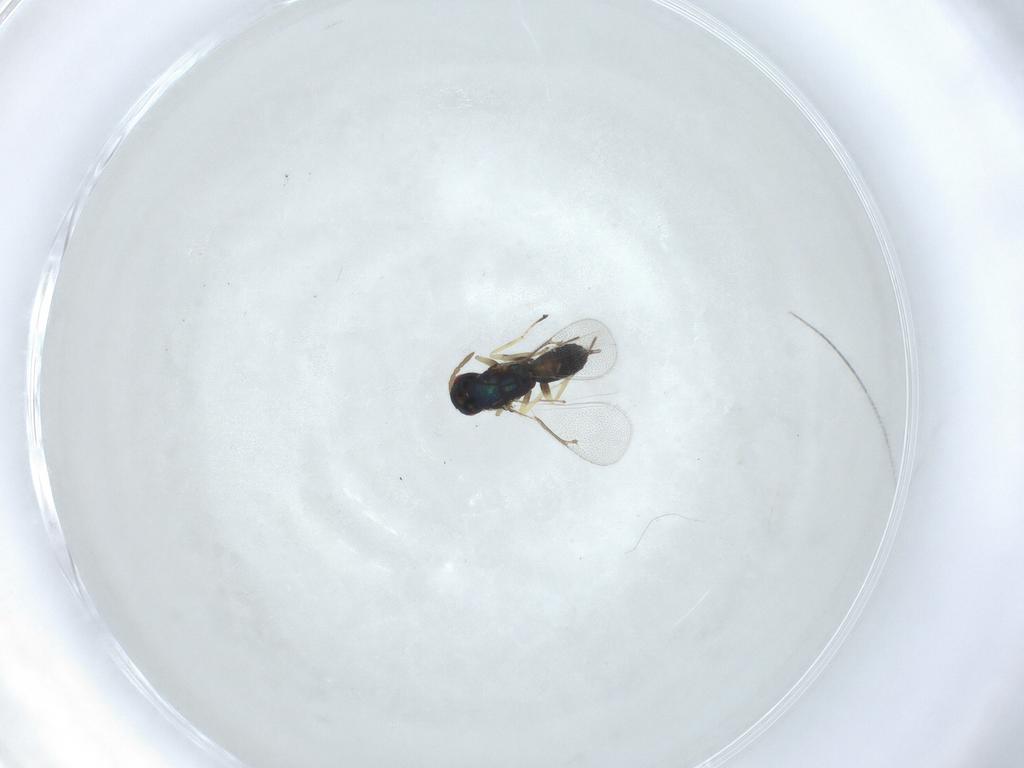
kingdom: Animalia
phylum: Arthropoda
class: Insecta
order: Hymenoptera
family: Eulophidae
